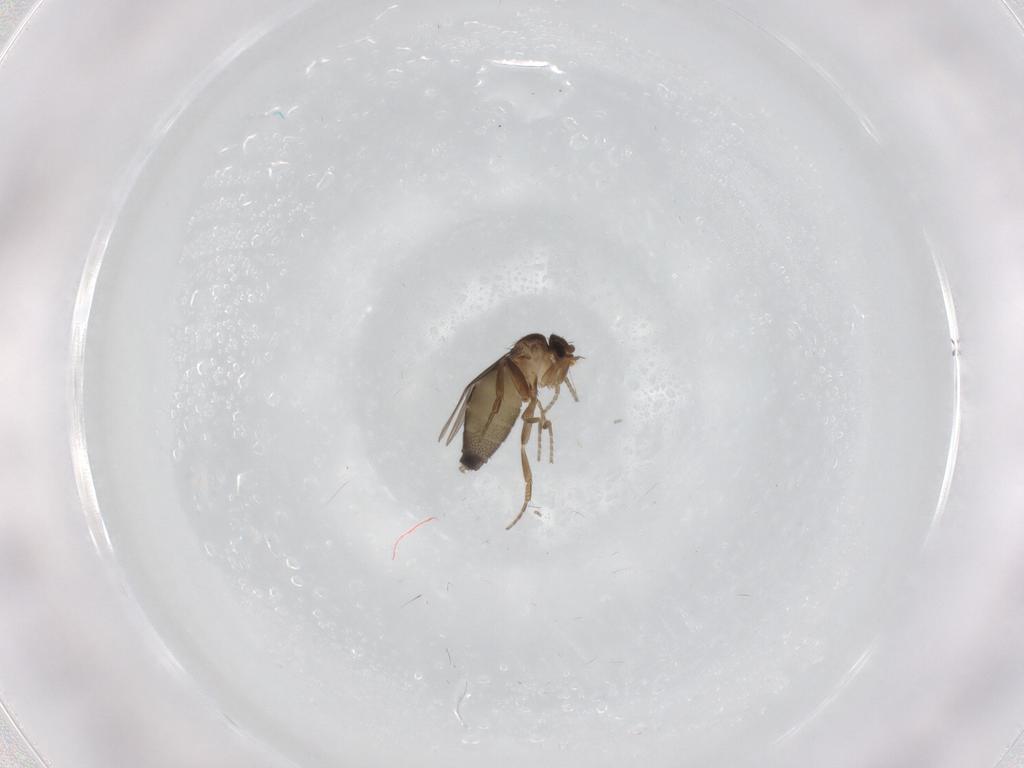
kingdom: Animalia
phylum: Arthropoda
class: Insecta
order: Diptera
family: Phoridae
